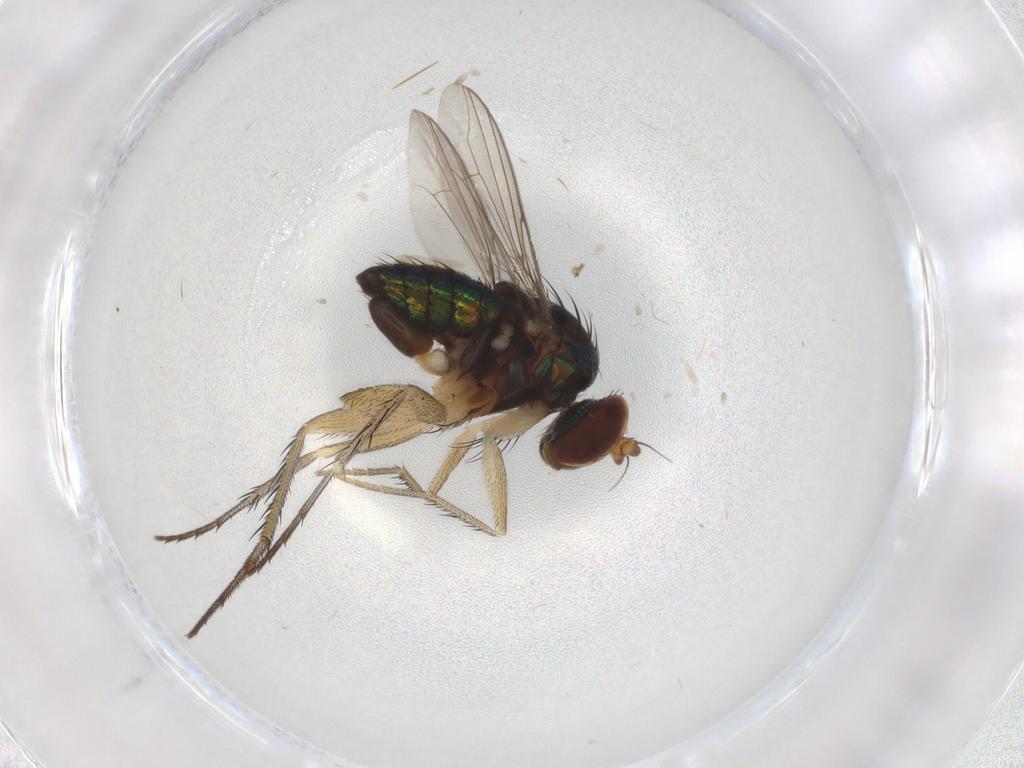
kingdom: Animalia
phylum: Arthropoda
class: Insecta
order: Diptera
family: Dolichopodidae
